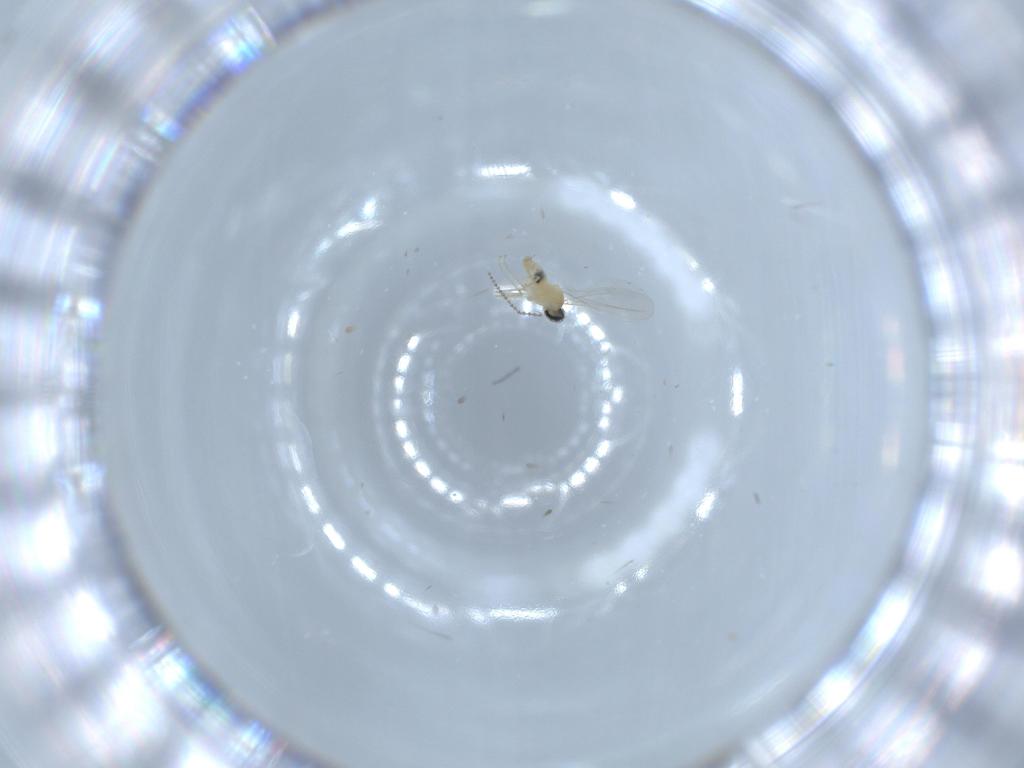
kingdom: Animalia
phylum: Arthropoda
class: Insecta
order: Diptera
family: Cecidomyiidae
